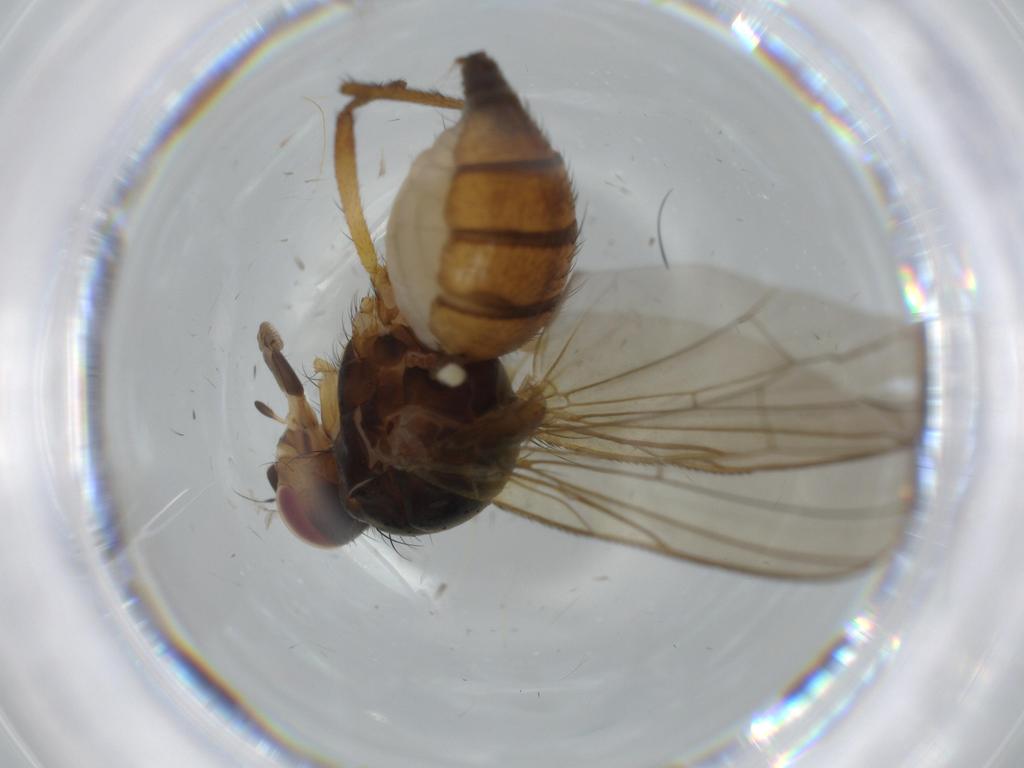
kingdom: Animalia
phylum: Arthropoda
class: Insecta
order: Diptera
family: Anthomyiidae
